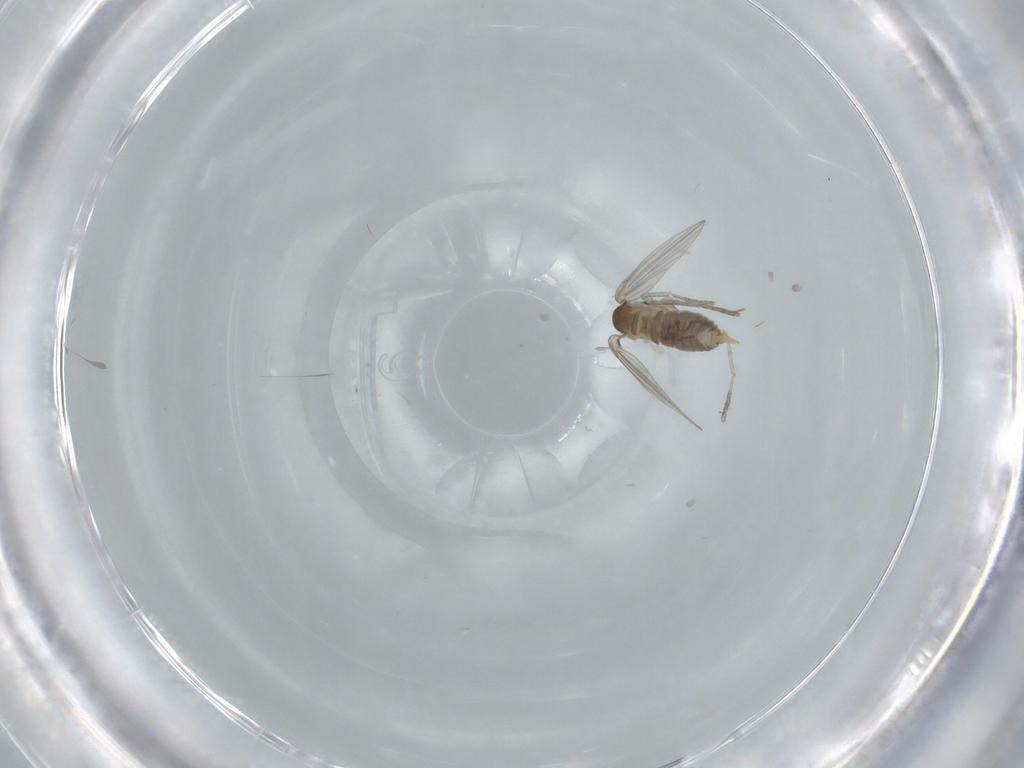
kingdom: Animalia
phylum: Arthropoda
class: Insecta
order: Diptera
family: Psychodidae
